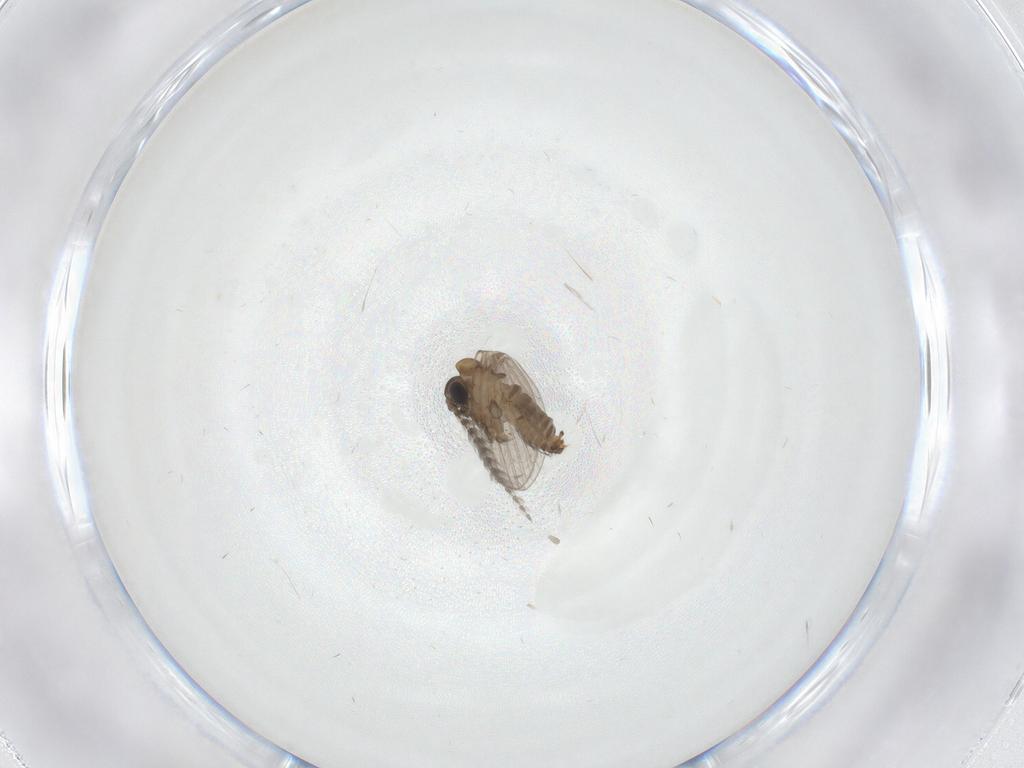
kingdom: Animalia
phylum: Arthropoda
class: Insecta
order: Diptera
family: Psychodidae
